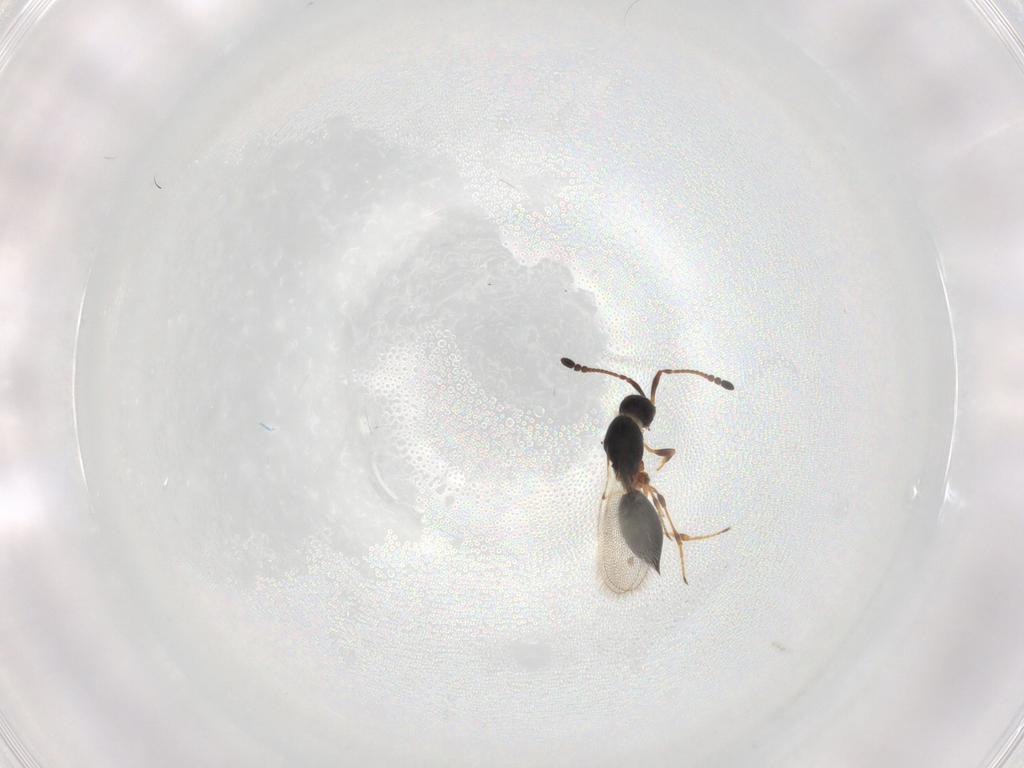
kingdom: Animalia
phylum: Arthropoda
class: Insecta
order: Hymenoptera
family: Diapriidae
